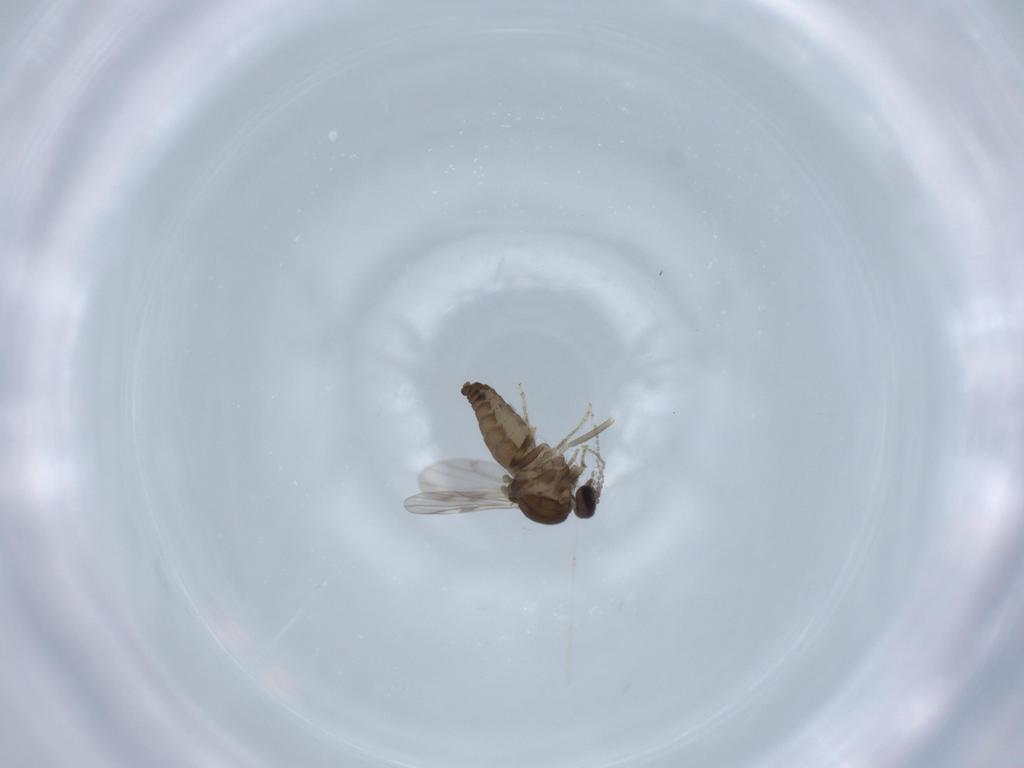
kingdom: Animalia
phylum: Arthropoda
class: Insecta
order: Diptera
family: Ceratopogonidae
